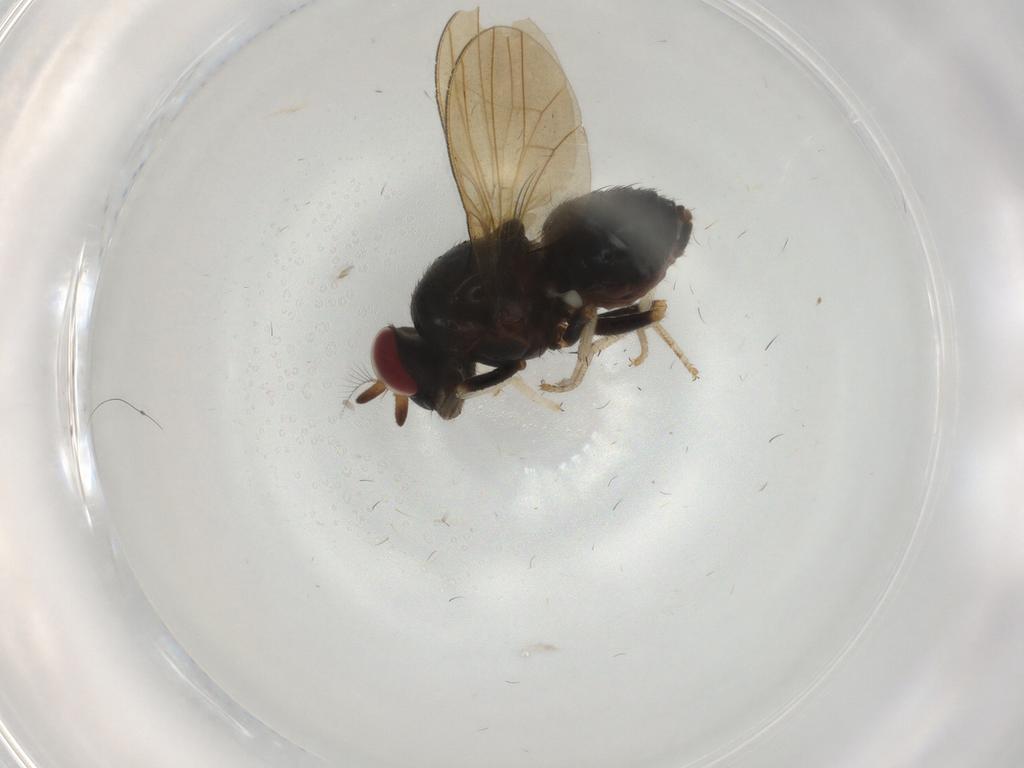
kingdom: Animalia
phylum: Arthropoda
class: Insecta
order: Diptera
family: Lauxaniidae
